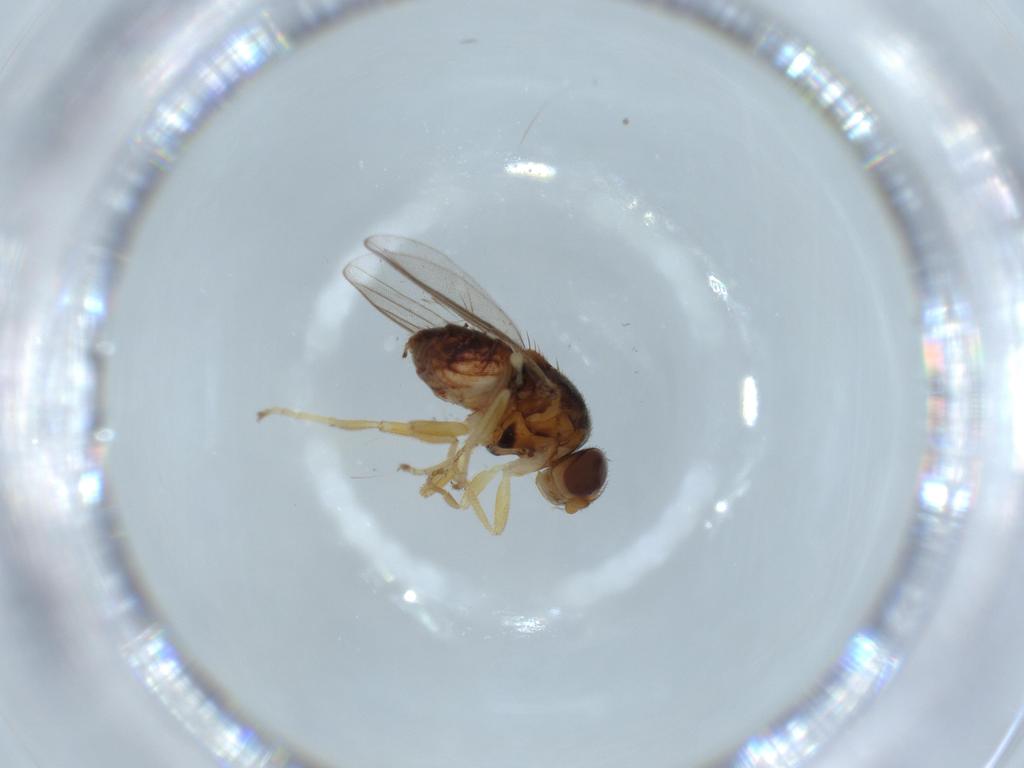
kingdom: Animalia
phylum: Arthropoda
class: Insecta
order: Diptera
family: Chloropidae
